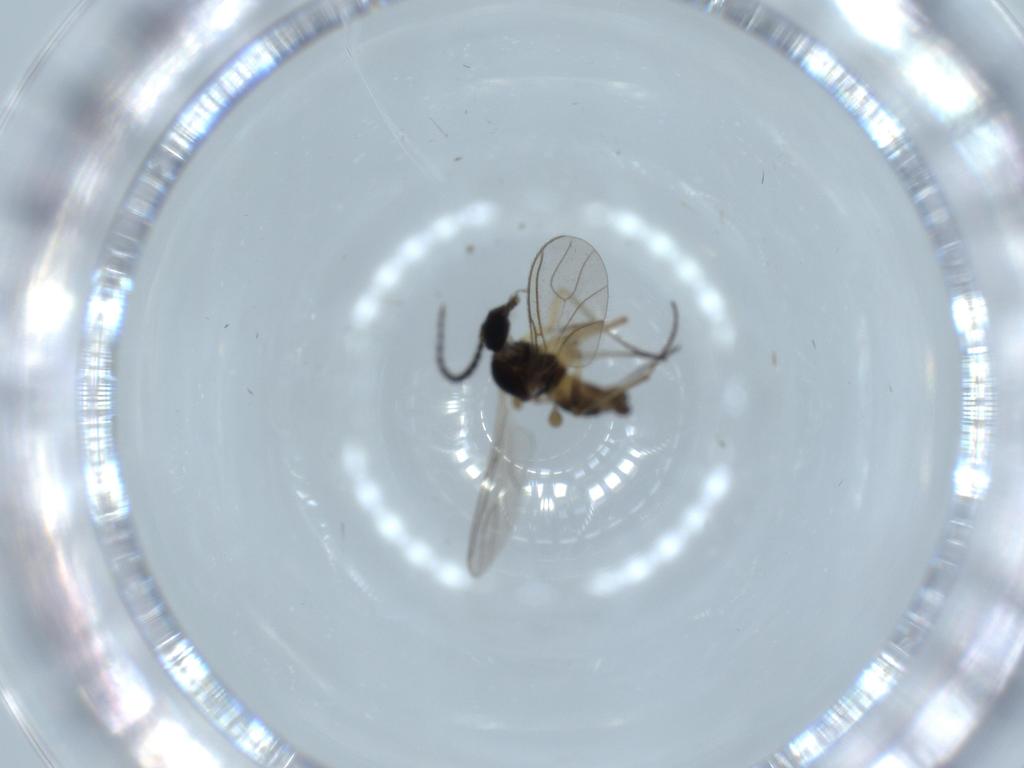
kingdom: Animalia
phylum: Arthropoda
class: Insecta
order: Diptera
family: Sciaridae
